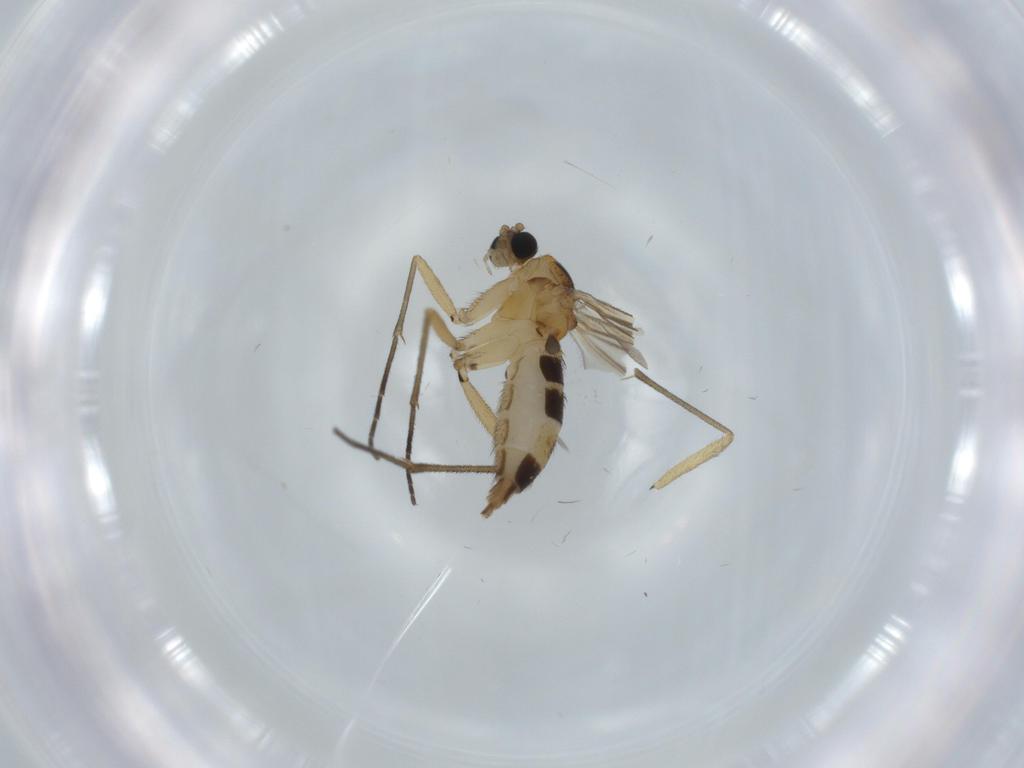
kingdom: Animalia
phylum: Arthropoda
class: Insecta
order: Diptera
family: Sciaridae
